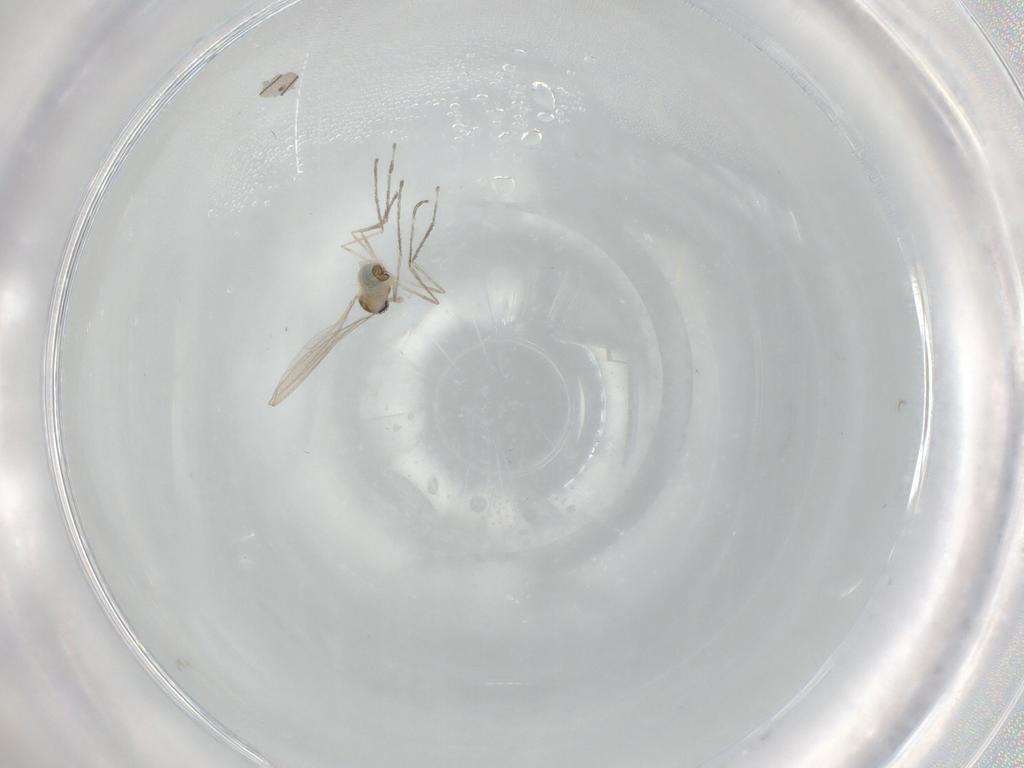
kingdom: Animalia
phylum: Arthropoda
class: Insecta
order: Diptera
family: Cecidomyiidae
